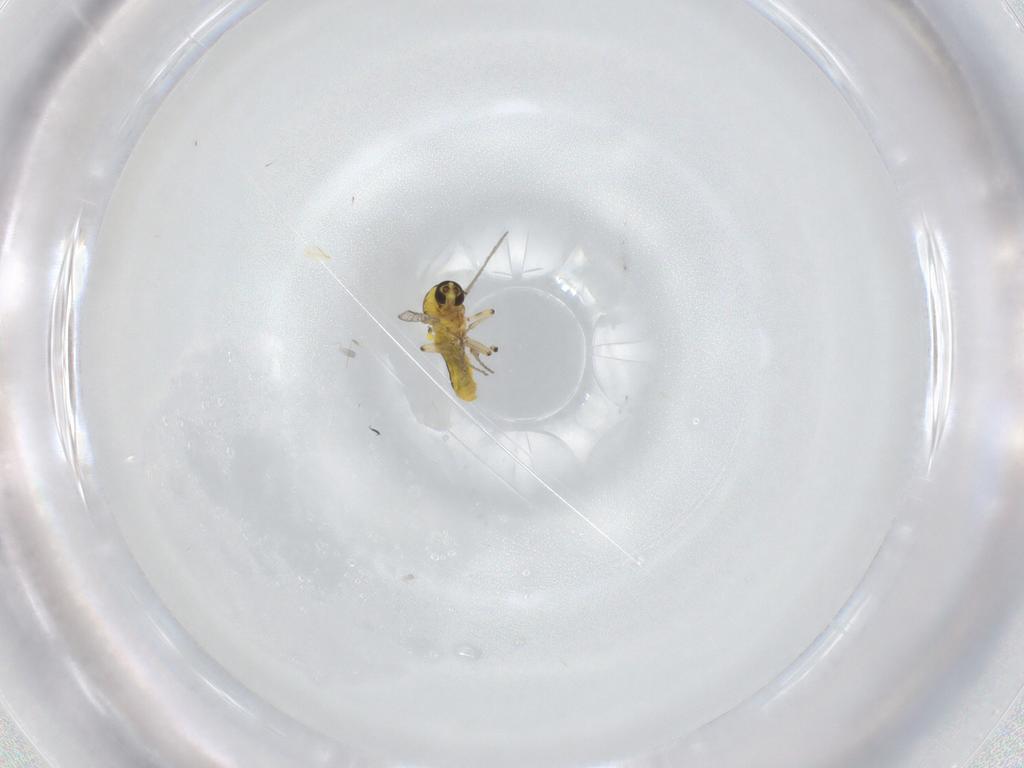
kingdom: Animalia
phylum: Arthropoda
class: Insecta
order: Diptera
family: Ceratopogonidae
